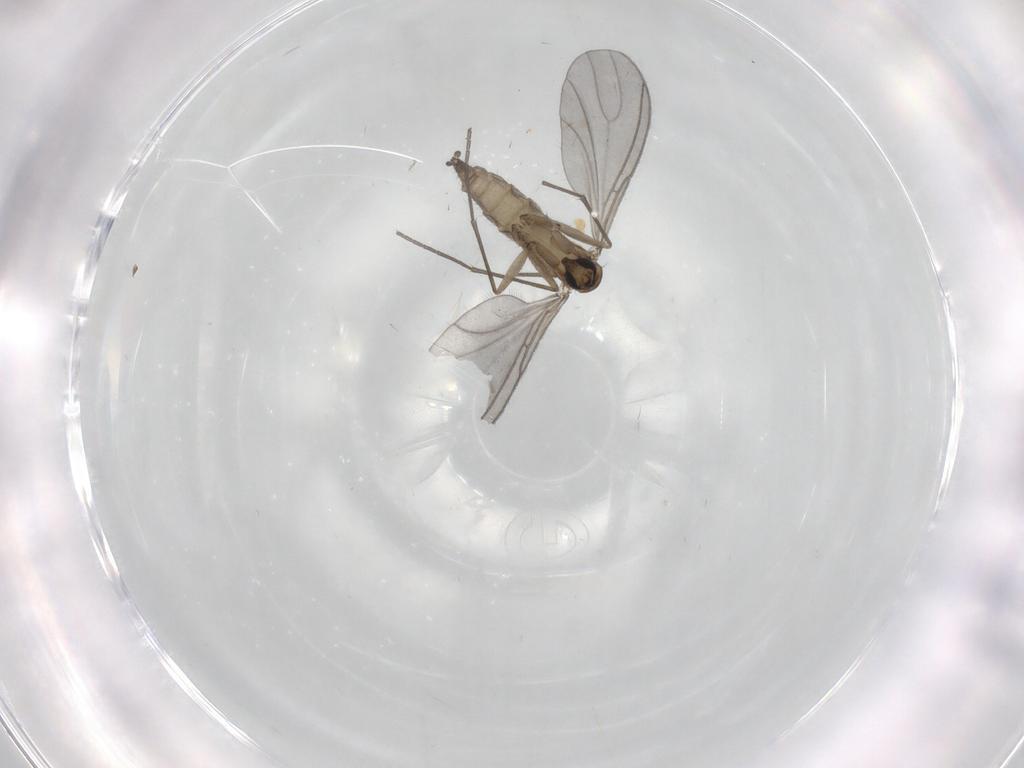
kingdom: Animalia
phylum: Arthropoda
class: Insecta
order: Diptera
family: Sciaridae
